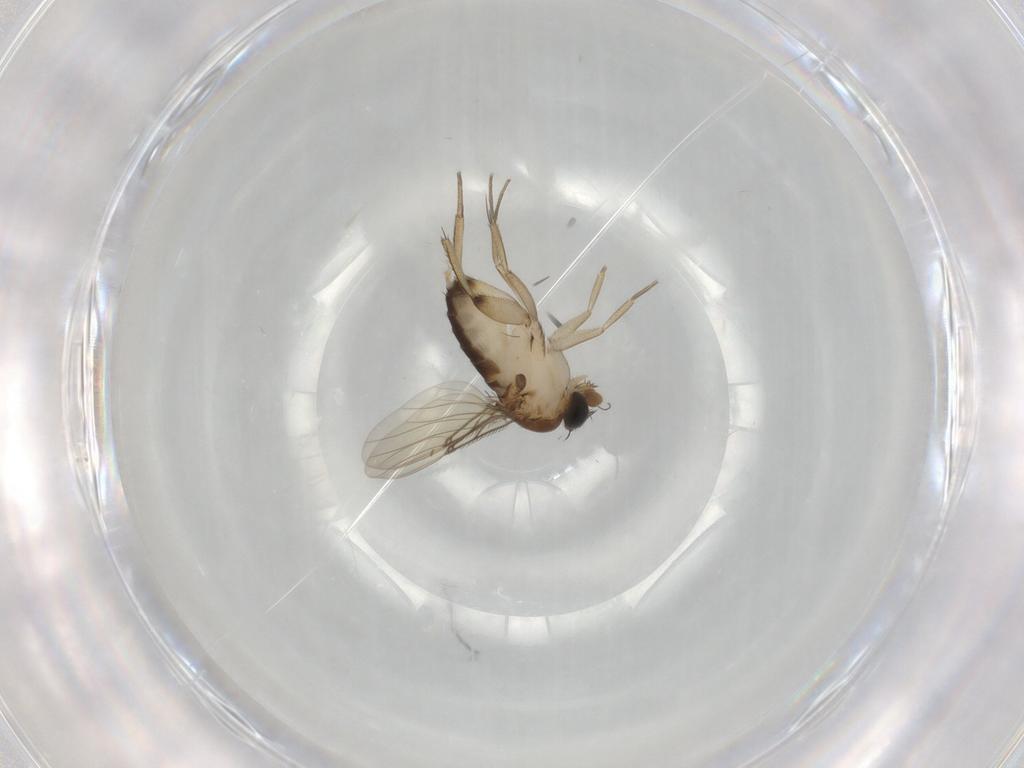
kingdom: Animalia
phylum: Arthropoda
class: Insecta
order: Diptera
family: Phoridae
